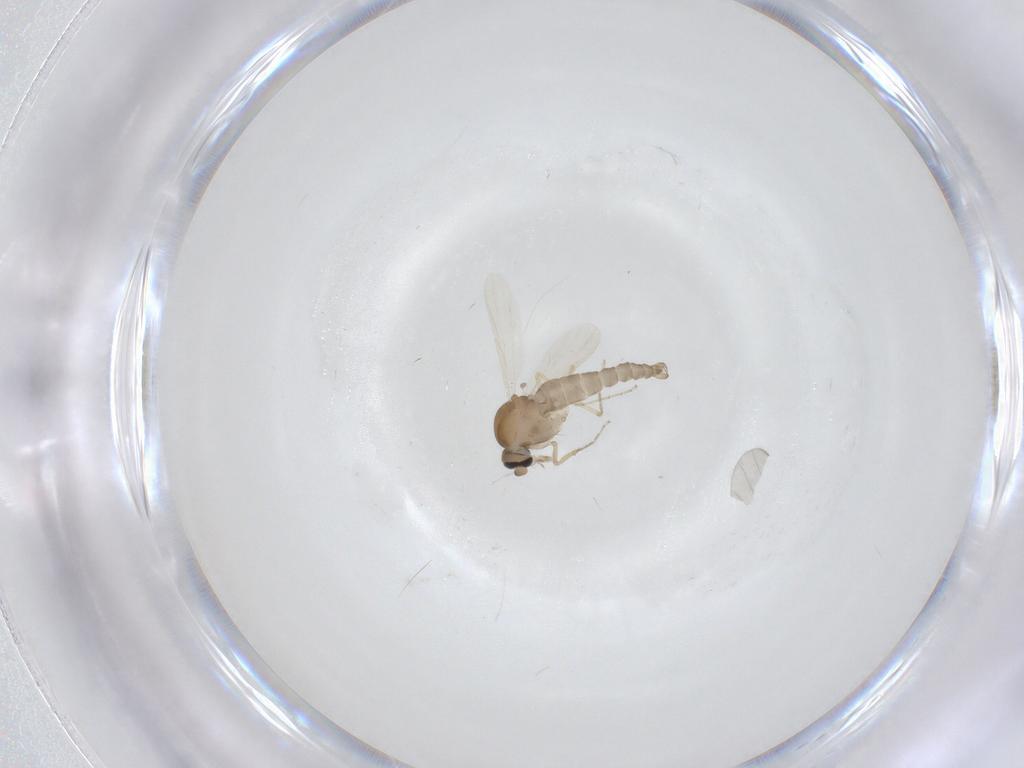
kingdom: Animalia
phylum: Arthropoda
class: Insecta
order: Diptera
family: Ceratopogonidae
